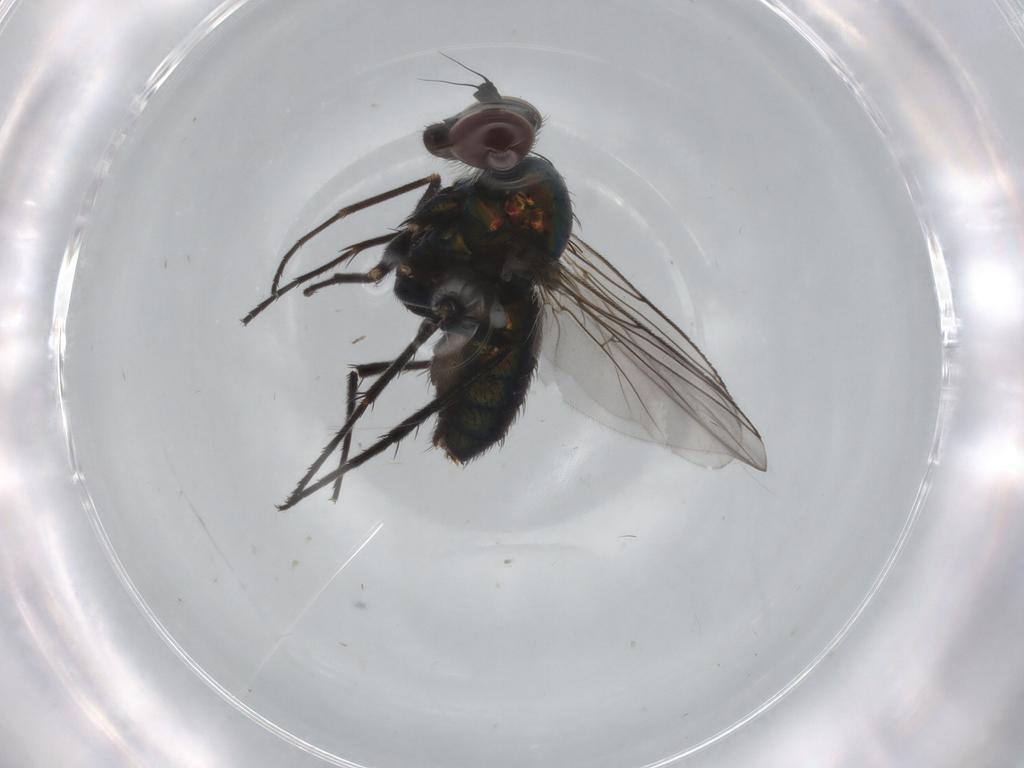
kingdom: Animalia
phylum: Arthropoda
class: Insecta
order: Diptera
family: Dolichopodidae
